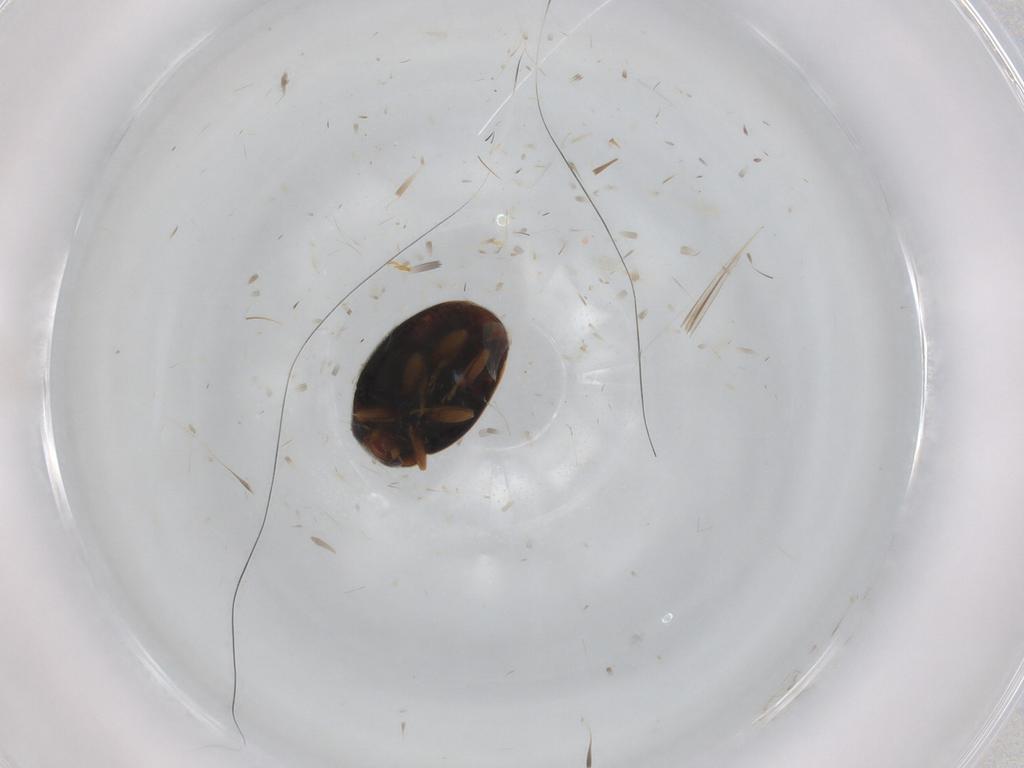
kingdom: Animalia
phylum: Arthropoda
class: Insecta
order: Coleoptera
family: Coccinellidae
